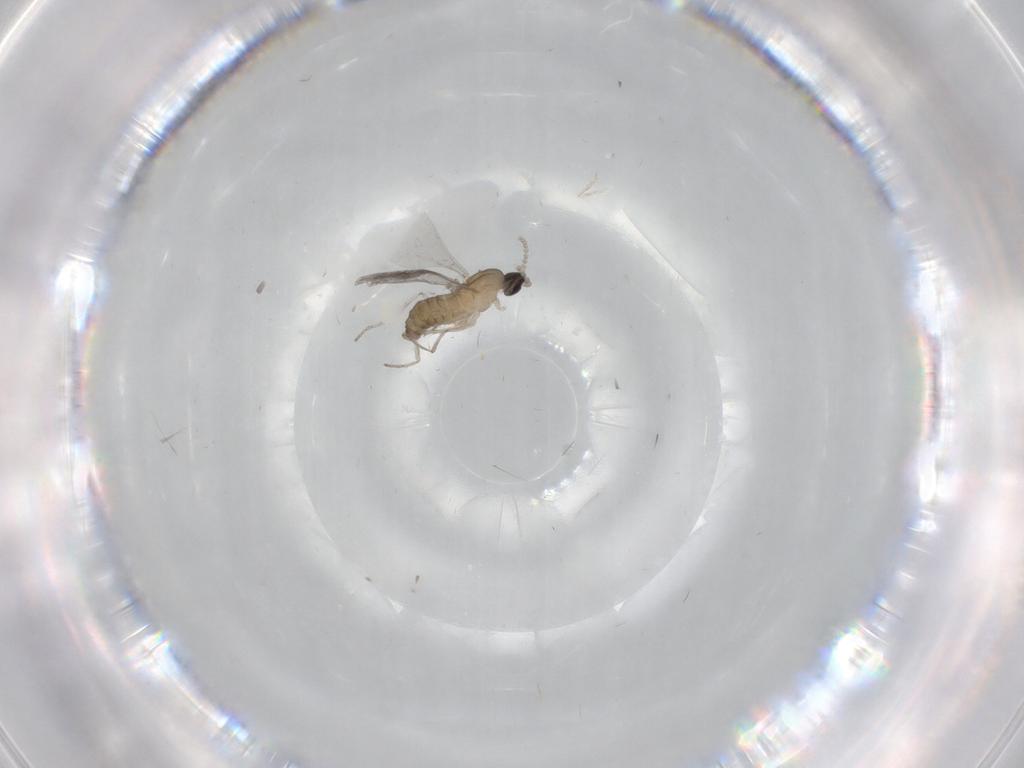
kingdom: Animalia
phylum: Arthropoda
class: Insecta
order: Diptera
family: Cecidomyiidae
